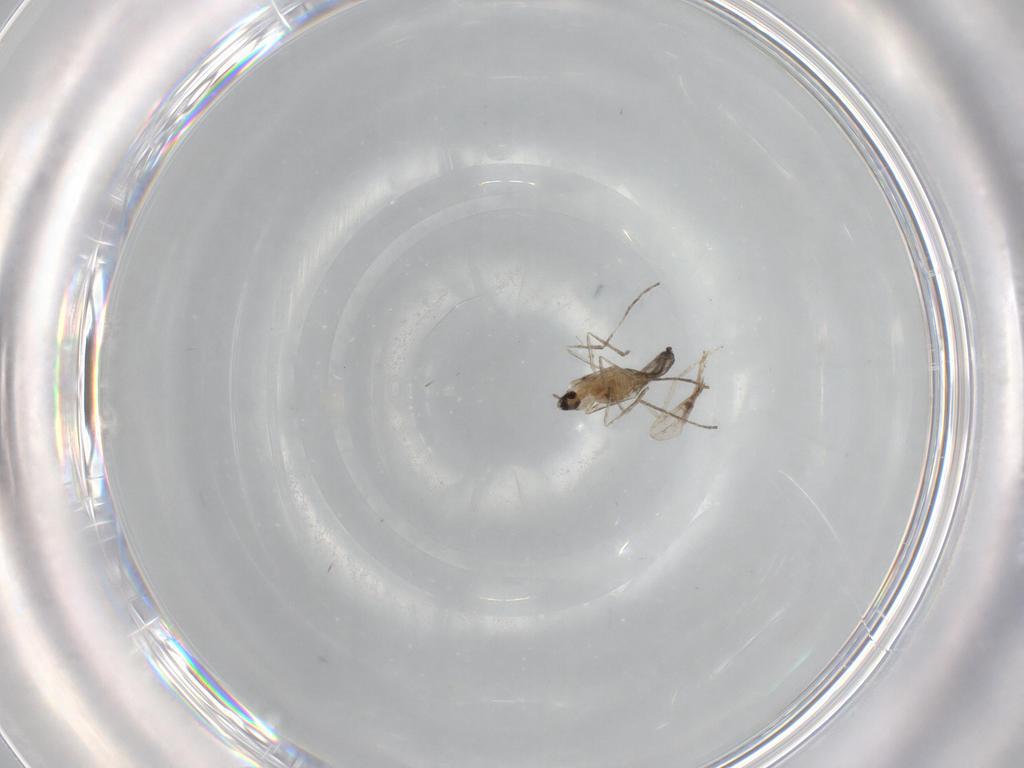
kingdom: Animalia
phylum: Arthropoda
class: Insecta
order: Diptera
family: Cecidomyiidae
